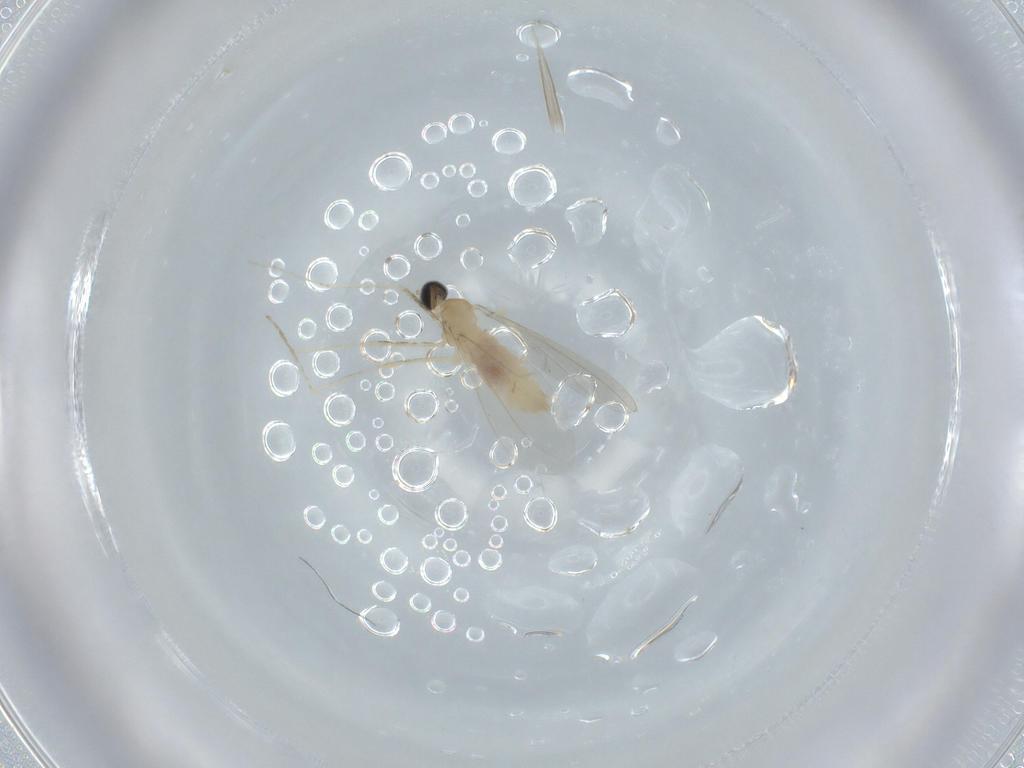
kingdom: Animalia
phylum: Arthropoda
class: Insecta
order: Diptera
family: Cecidomyiidae
